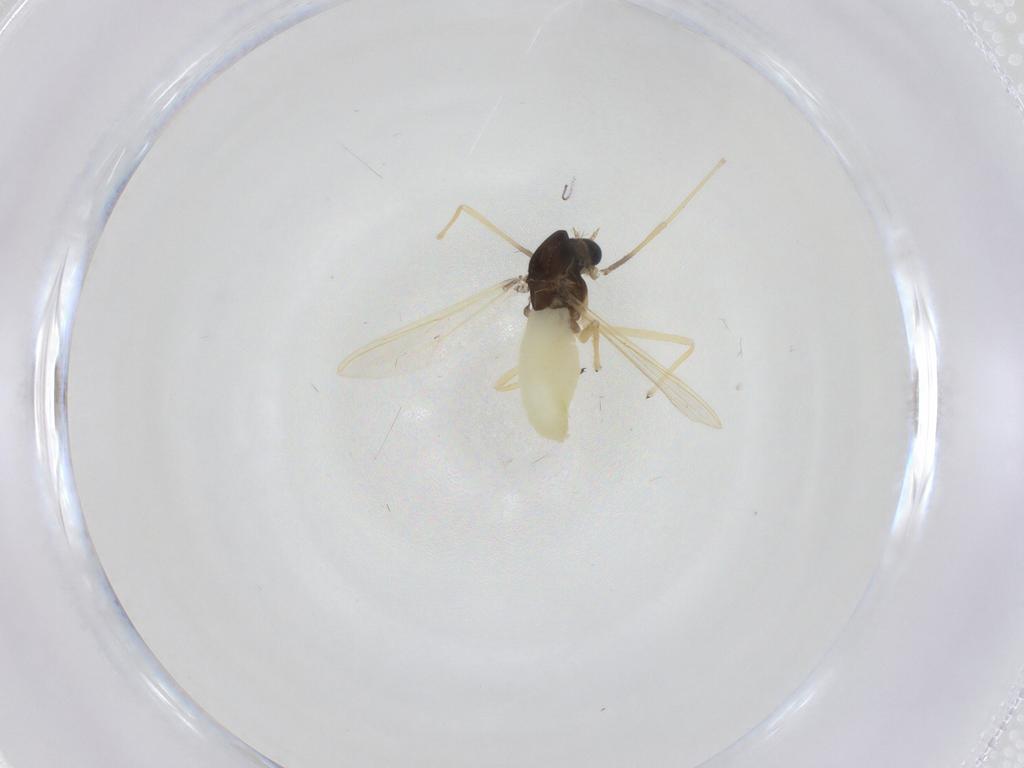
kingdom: Animalia
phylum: Arthropoda
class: Insecta
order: Diptera
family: Chironomidae
